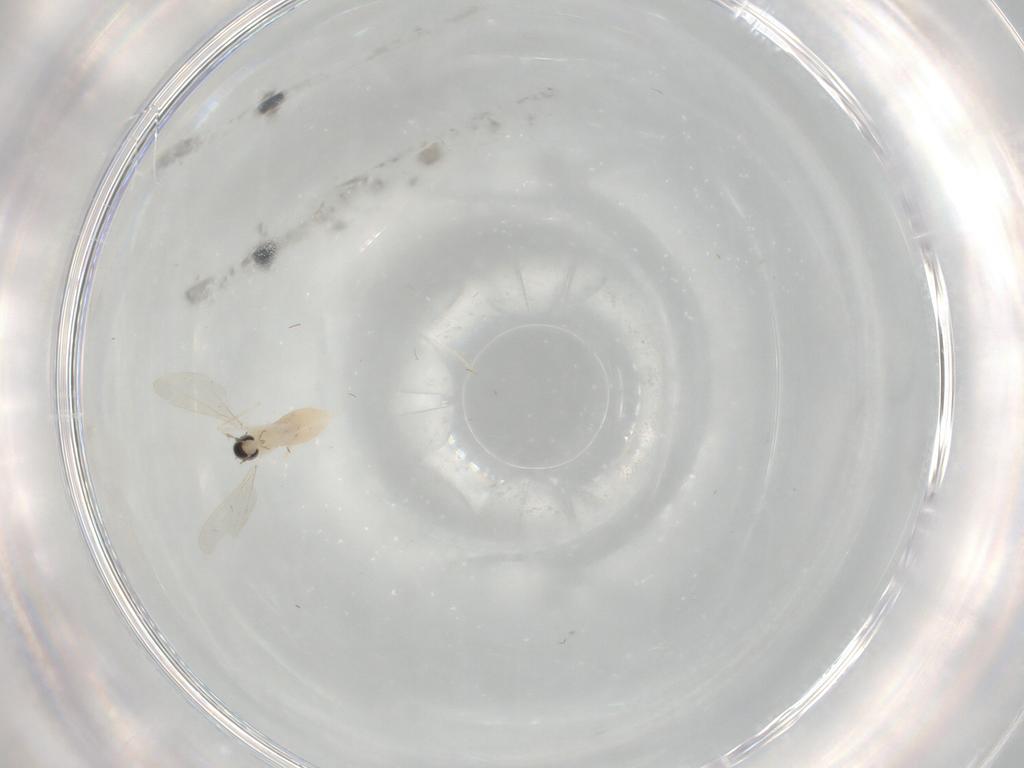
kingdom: Animalia
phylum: Arthropoda
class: Insecta
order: Diptera
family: Cecidomyiidae
